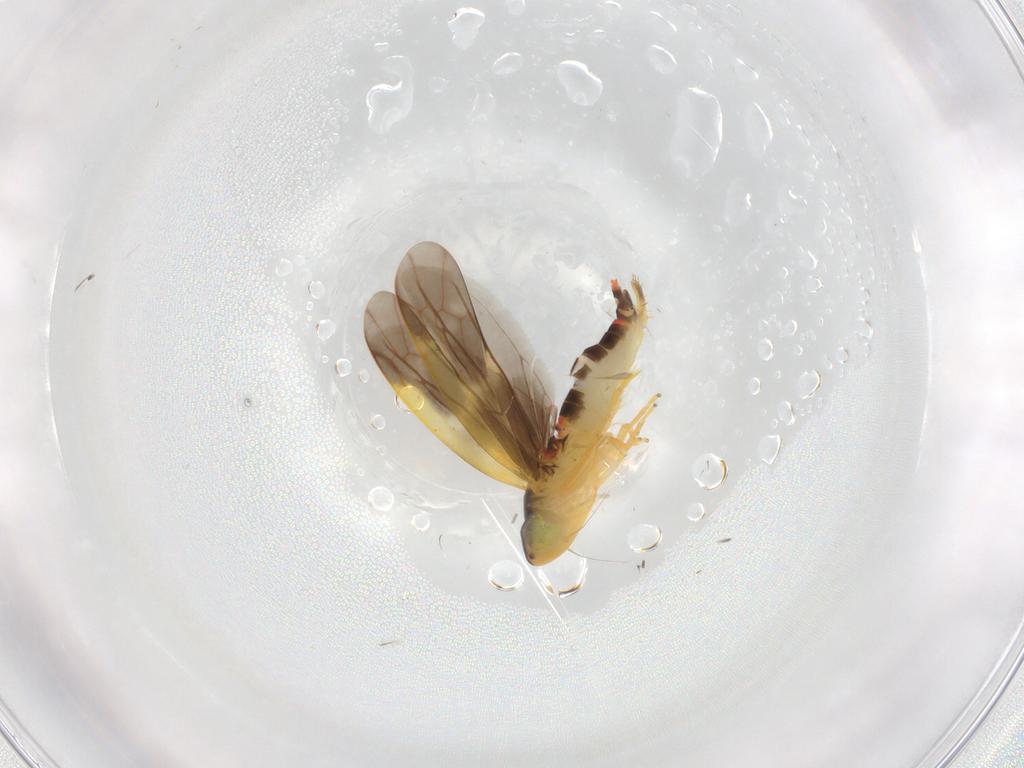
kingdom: Animalia
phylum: Arthropoda
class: Insecta
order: Hemiptera
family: Cicadellidae
